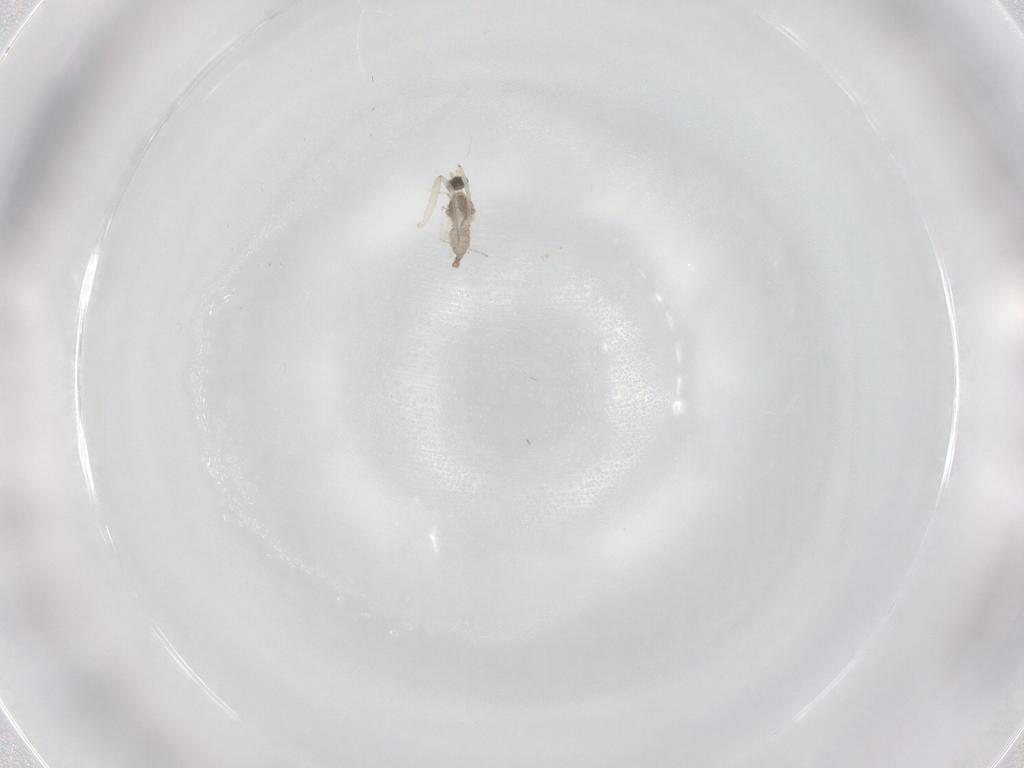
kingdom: Animalia
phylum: Arthropoda
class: Insecta
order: Diptera
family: Cecidomyiidae
